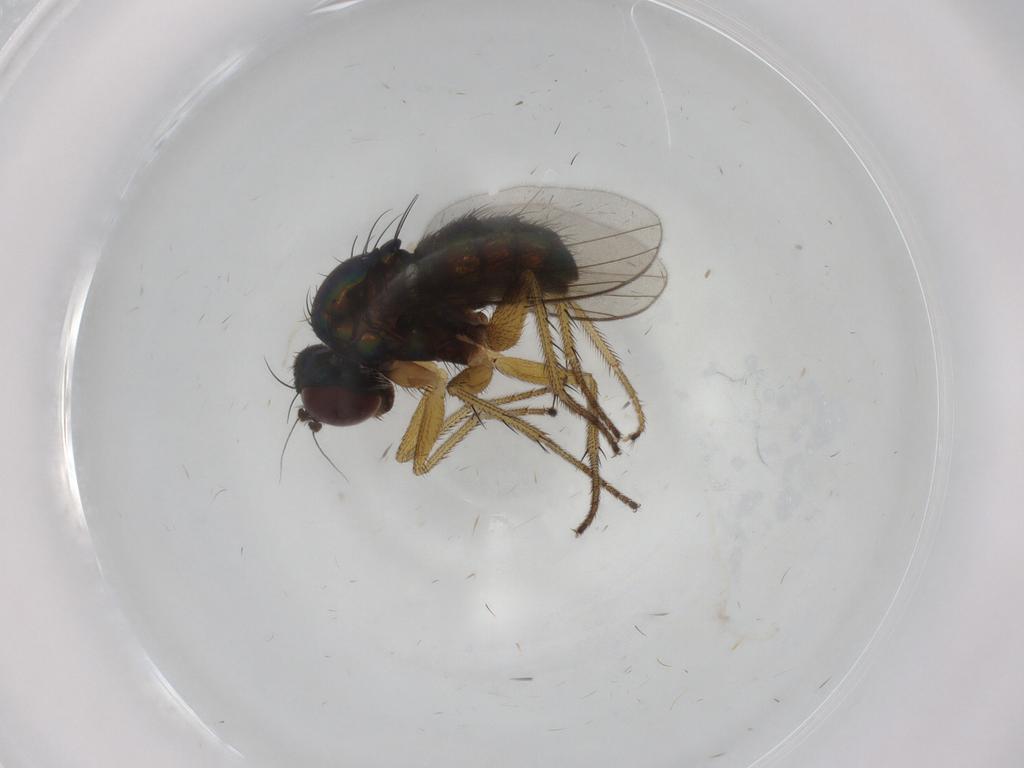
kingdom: Animalia
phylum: Arthropoda
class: Insecta
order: Diptera
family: Dolichopodidae
